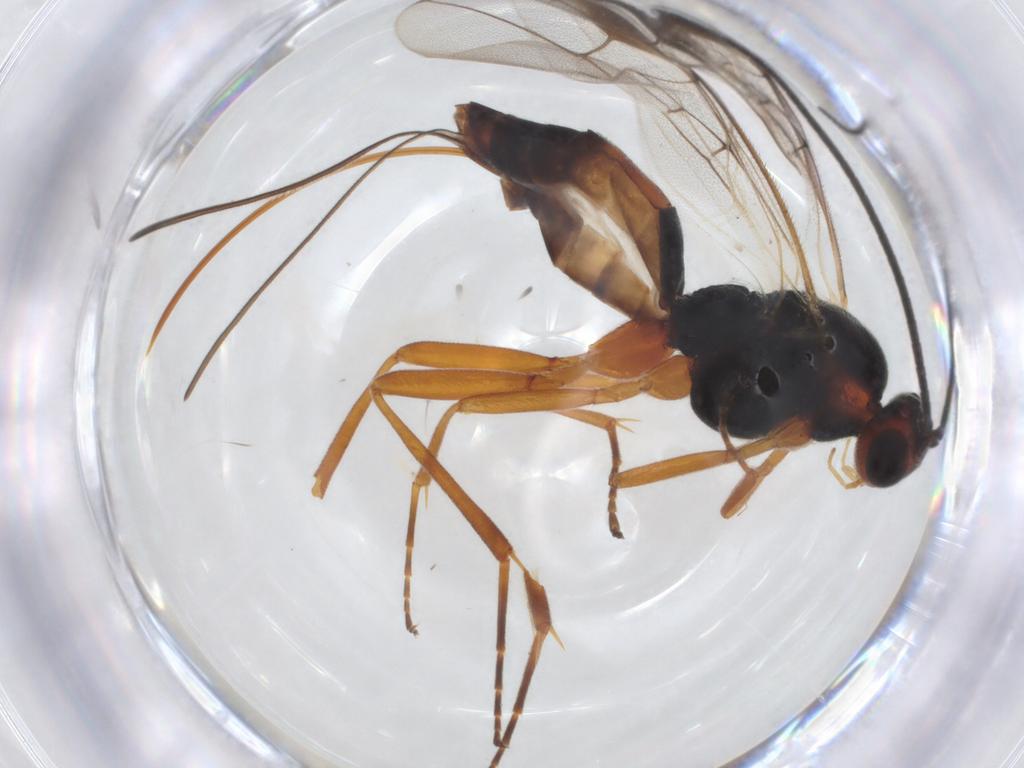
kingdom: Animalia
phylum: Arthropoda
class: Insecta
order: Hymenoptera
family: Braconidae
